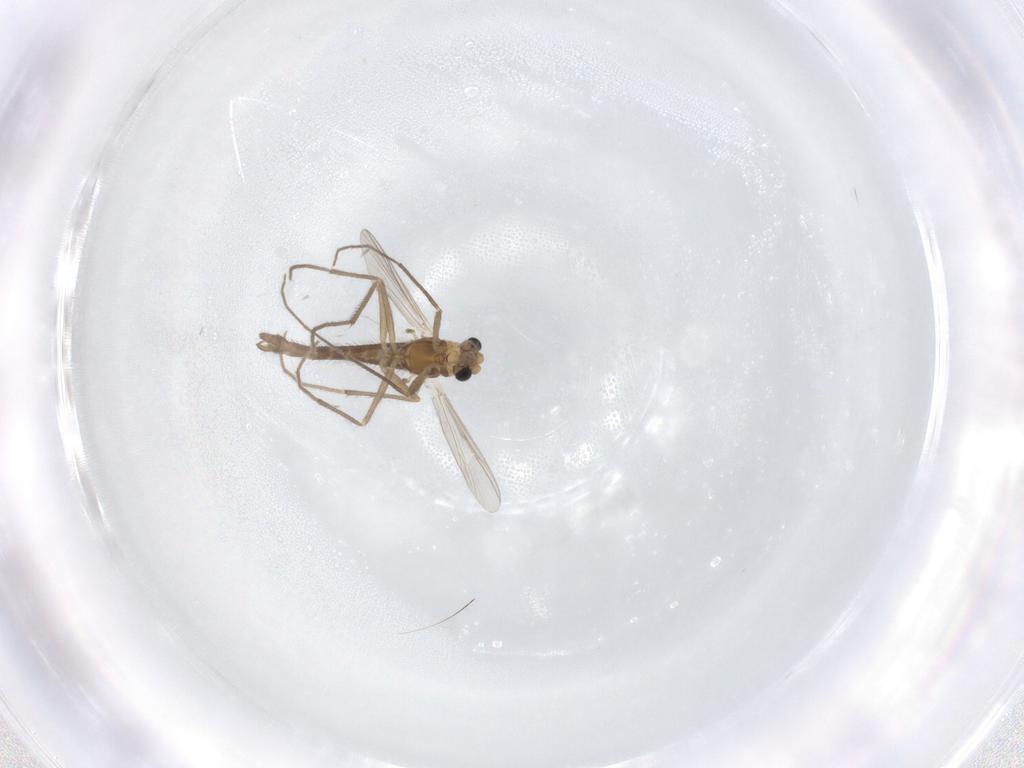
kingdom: Animalia
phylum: Arthropoda
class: Insecta
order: Diptera
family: Chironomidae
